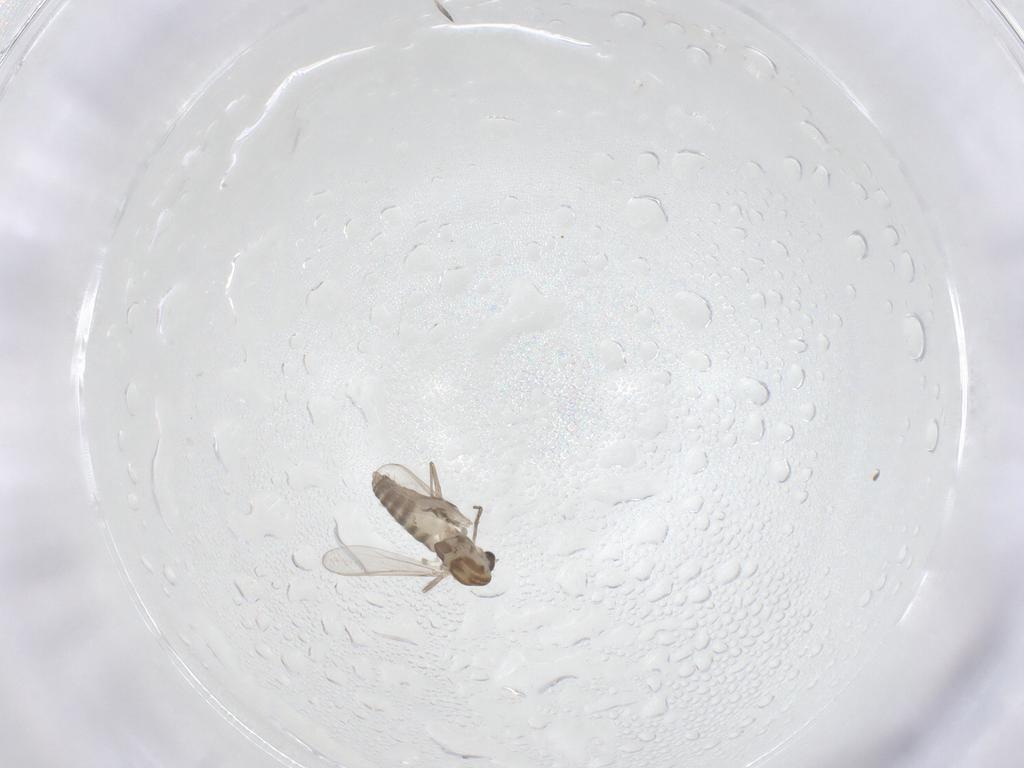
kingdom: Animalia
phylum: Arthropoda
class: Insecta
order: Diptera
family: Chironomidae
